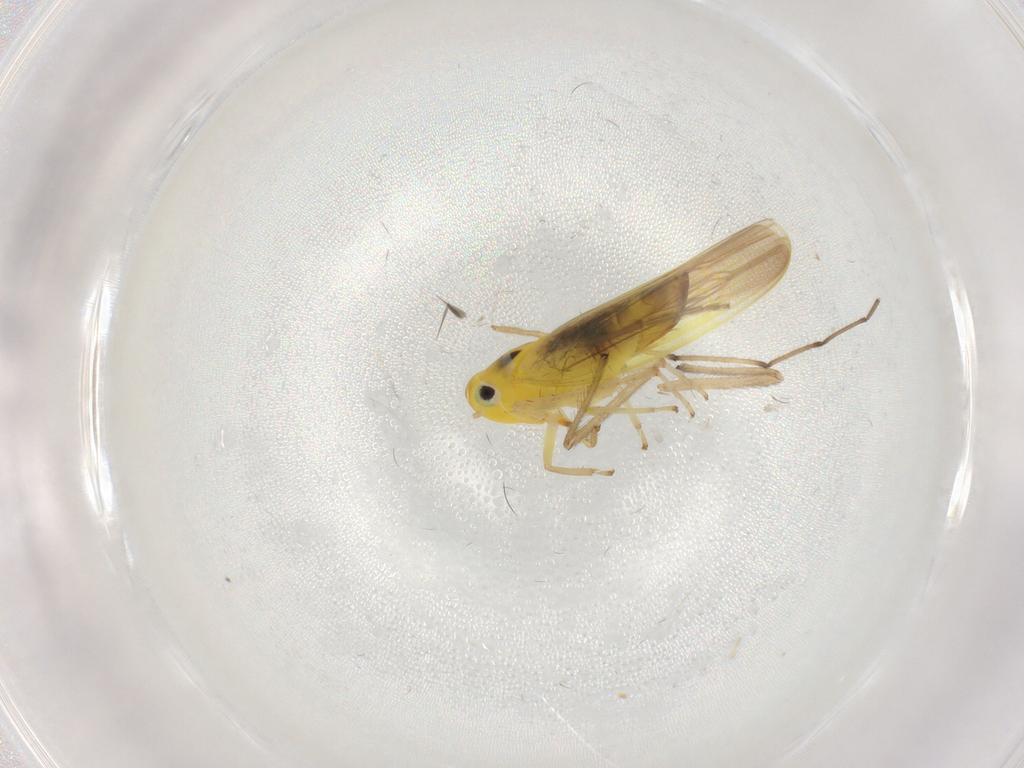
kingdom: Animalia
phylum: Arthropoda
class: Insecta
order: Hemiptera
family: Cicadellidae
